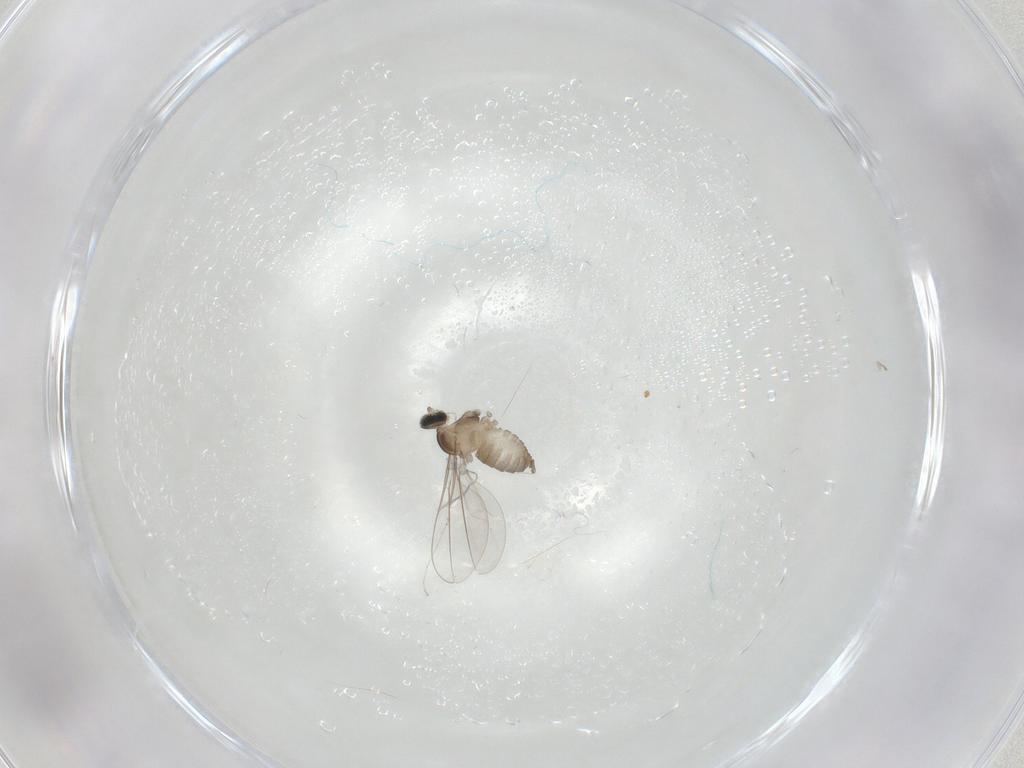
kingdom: Animalia
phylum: Arthropoda
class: Insecta
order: Diptera
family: Cecidomyiidae
